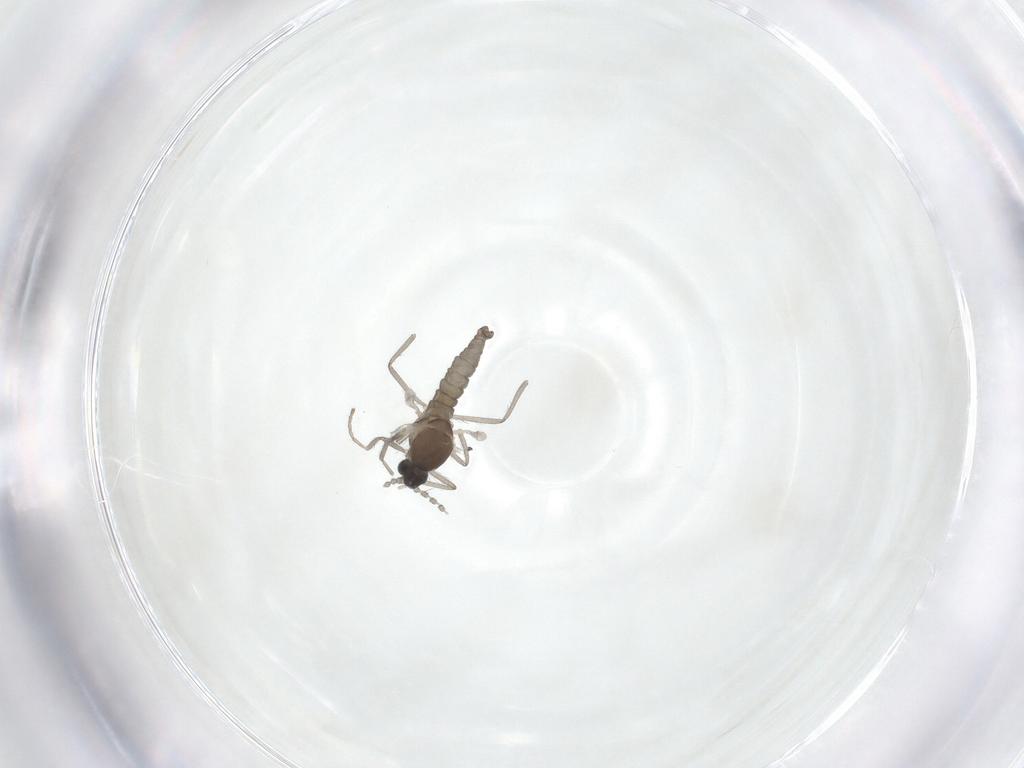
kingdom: Animalia
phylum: Arthropoda
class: Insecta
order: Diptera
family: Cecidomyiidae
